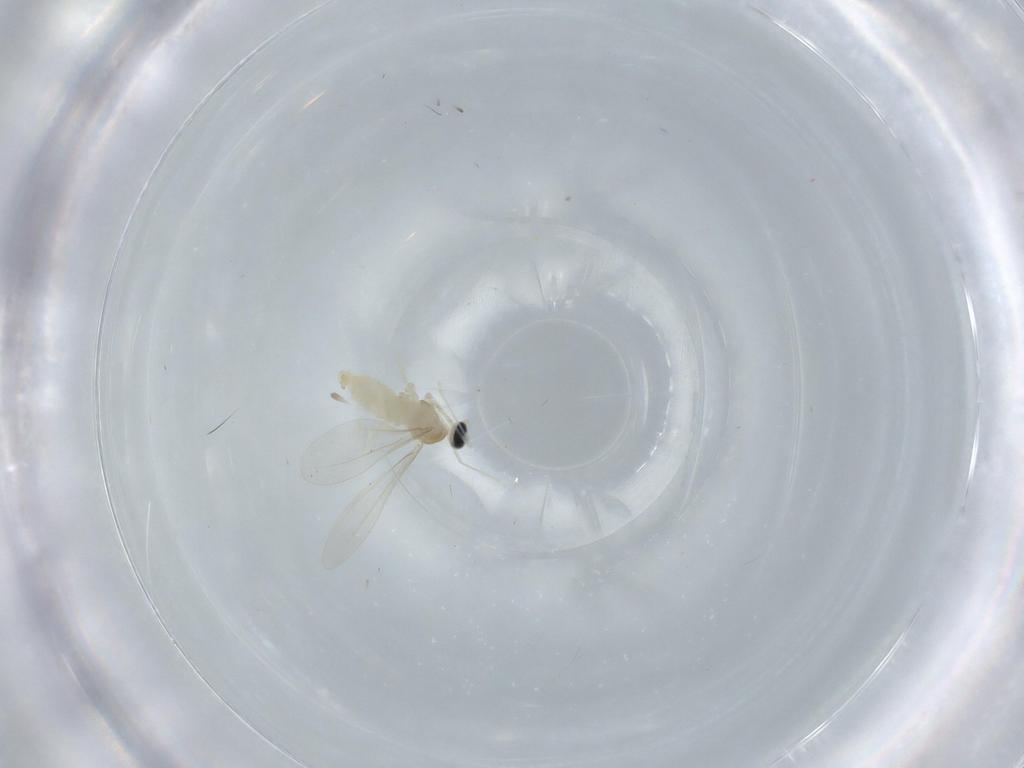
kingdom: Animalia
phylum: Arthropoda
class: Insecta
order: Diptera
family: Cecidomyiidae
